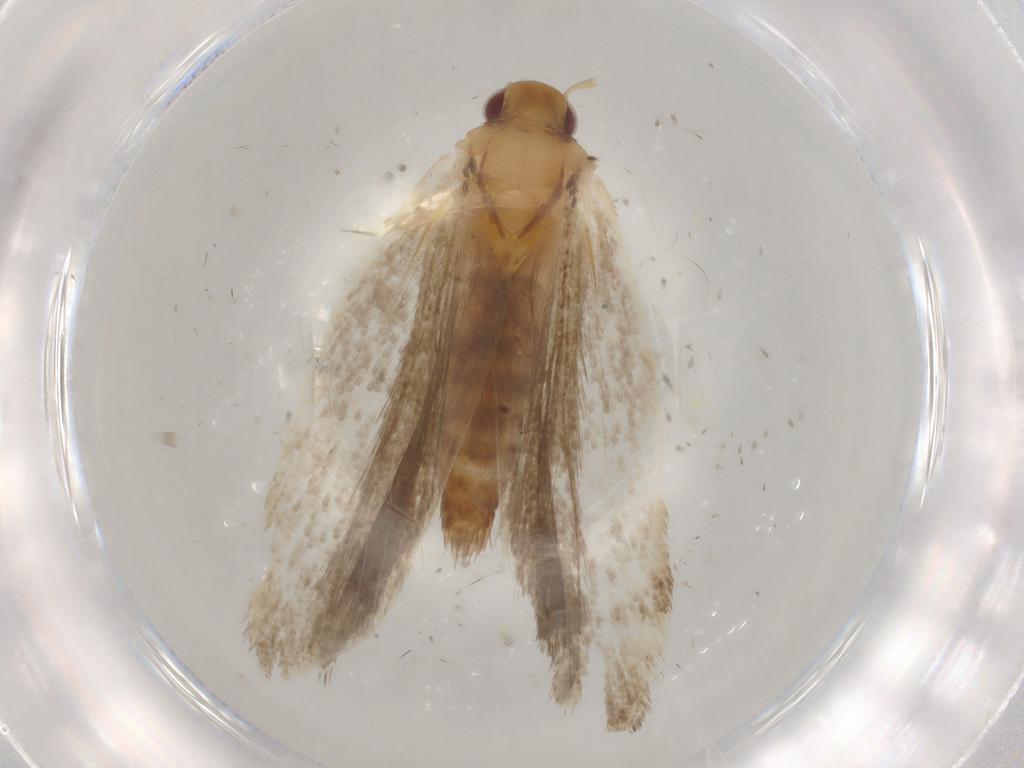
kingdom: Animalia
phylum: Arthropoda
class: Insecta
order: Lepidoptera
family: Gelechiidae
